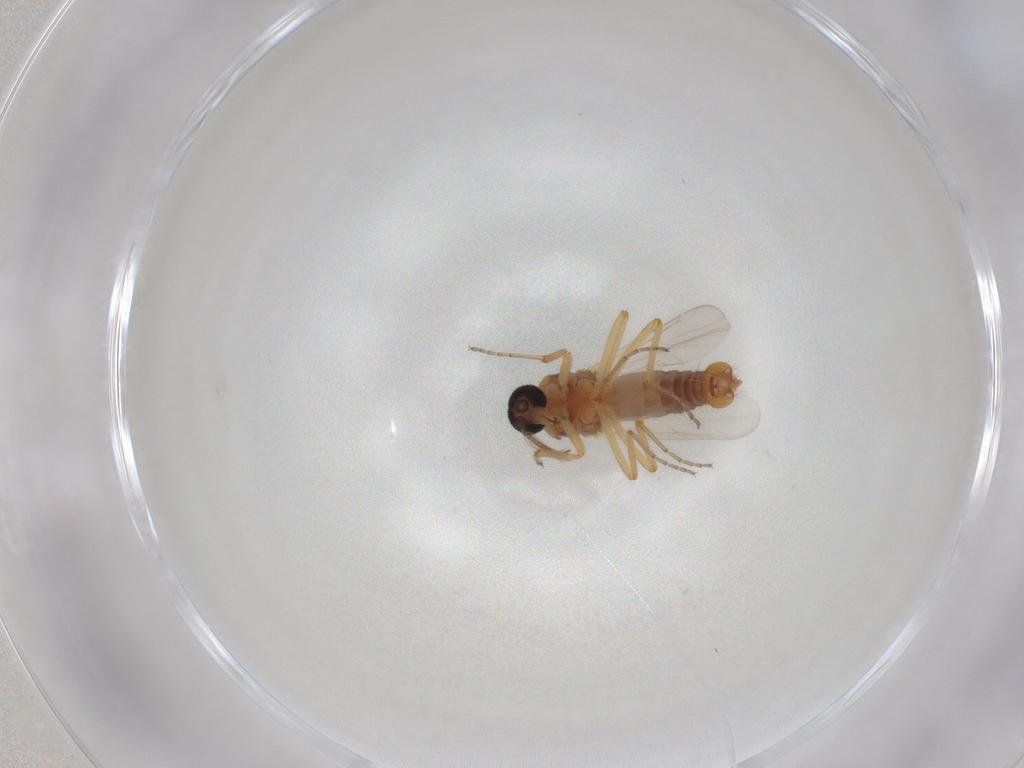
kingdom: Animalia
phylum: Arthropoda
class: Insecta
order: Diptera
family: Ceratopogonidae
